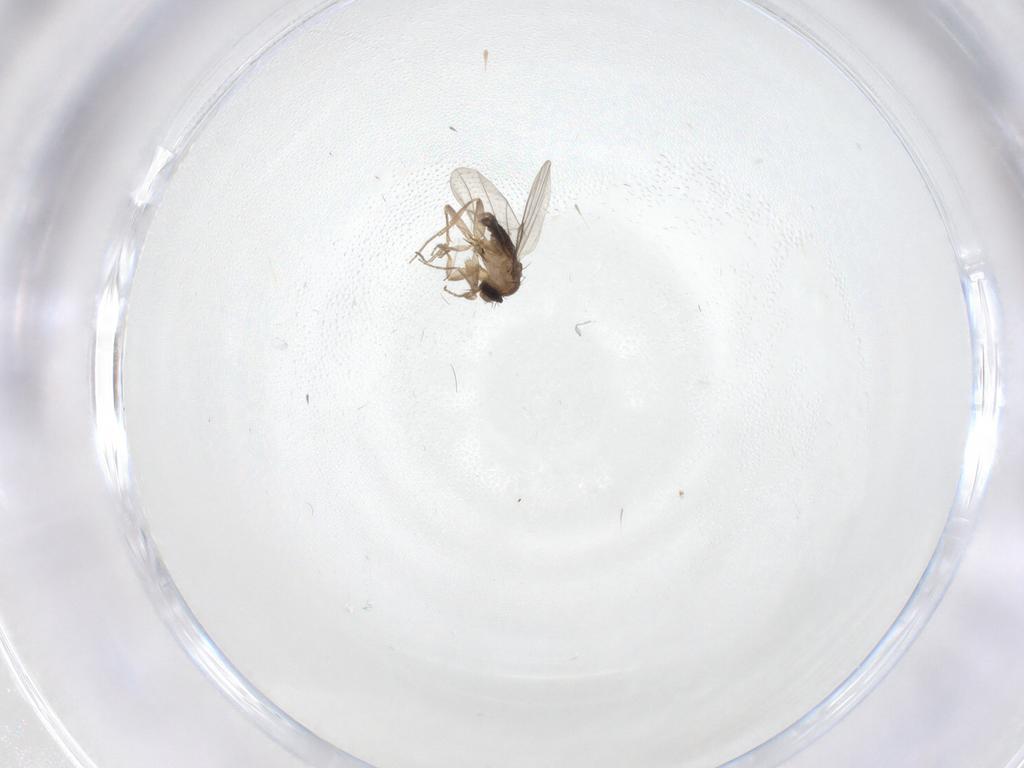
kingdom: Animalia
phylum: Arthropoda
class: Insecta
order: Diptera
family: Phoridae
